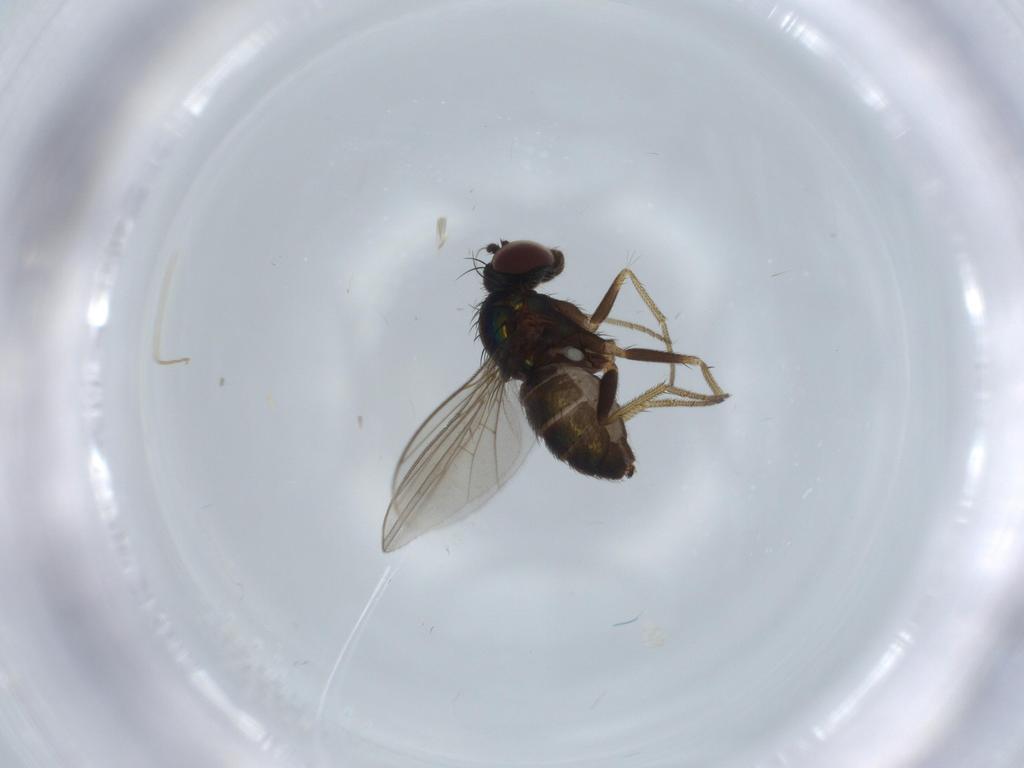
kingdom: Animalia
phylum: Arthropoda
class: Insecta
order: Diptera
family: Dolichopodidae
